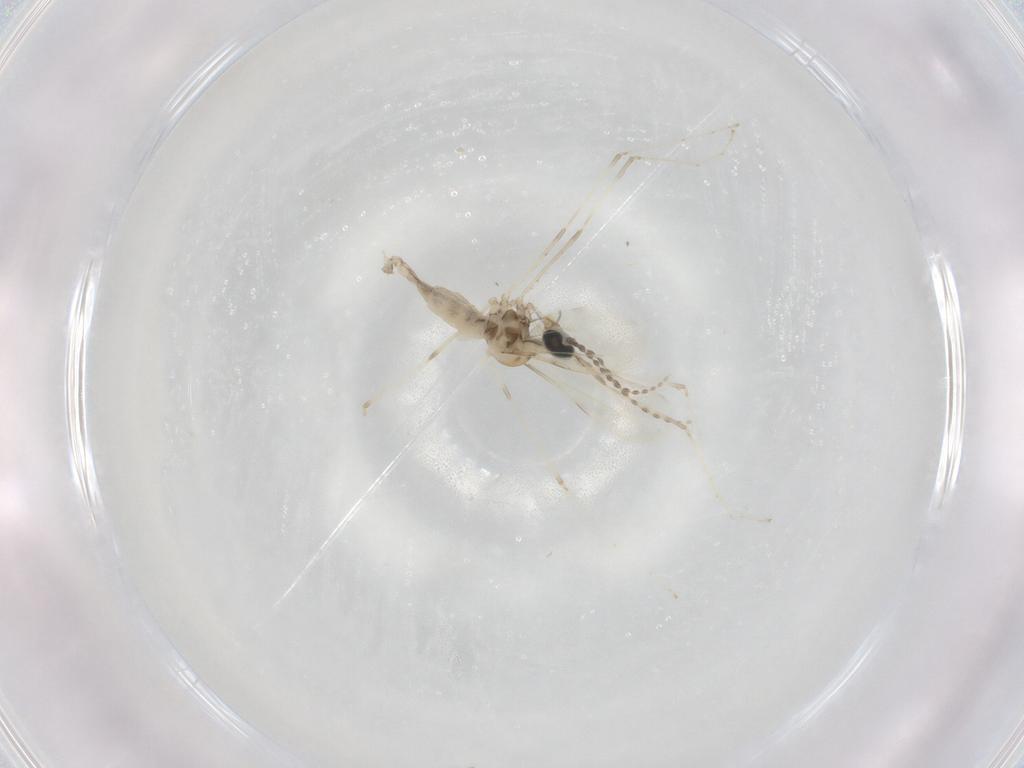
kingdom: Animalia
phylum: Arthropoda
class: Insecta
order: Diptera
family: Cecidomyiidae
